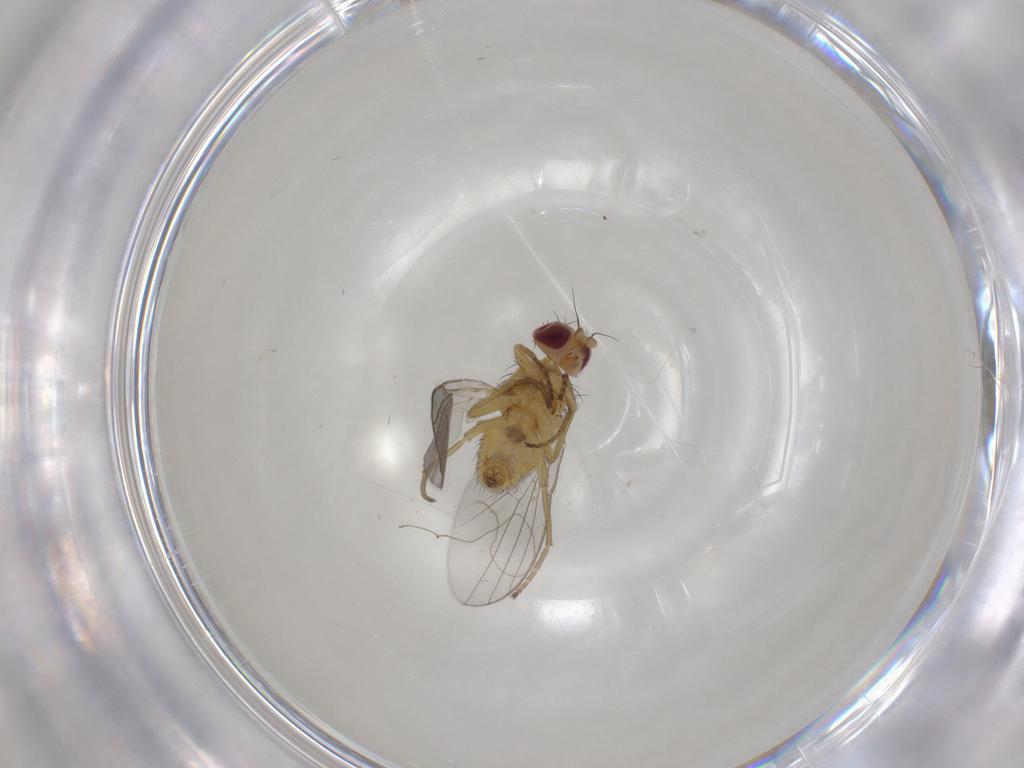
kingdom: Animalia
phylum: Arthropoda
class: Insecta
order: Diptera
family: Agromyzidae
